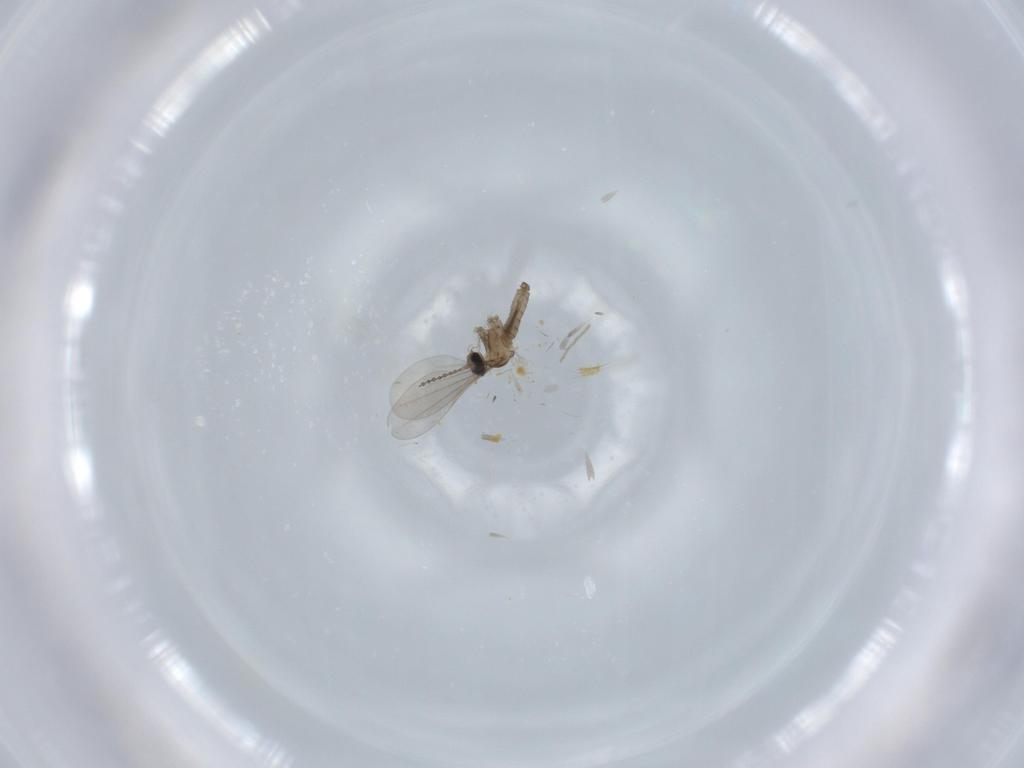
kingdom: Animalia
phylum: Arthropoda
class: Insecta
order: Diptera
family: Cecidomyiidae
